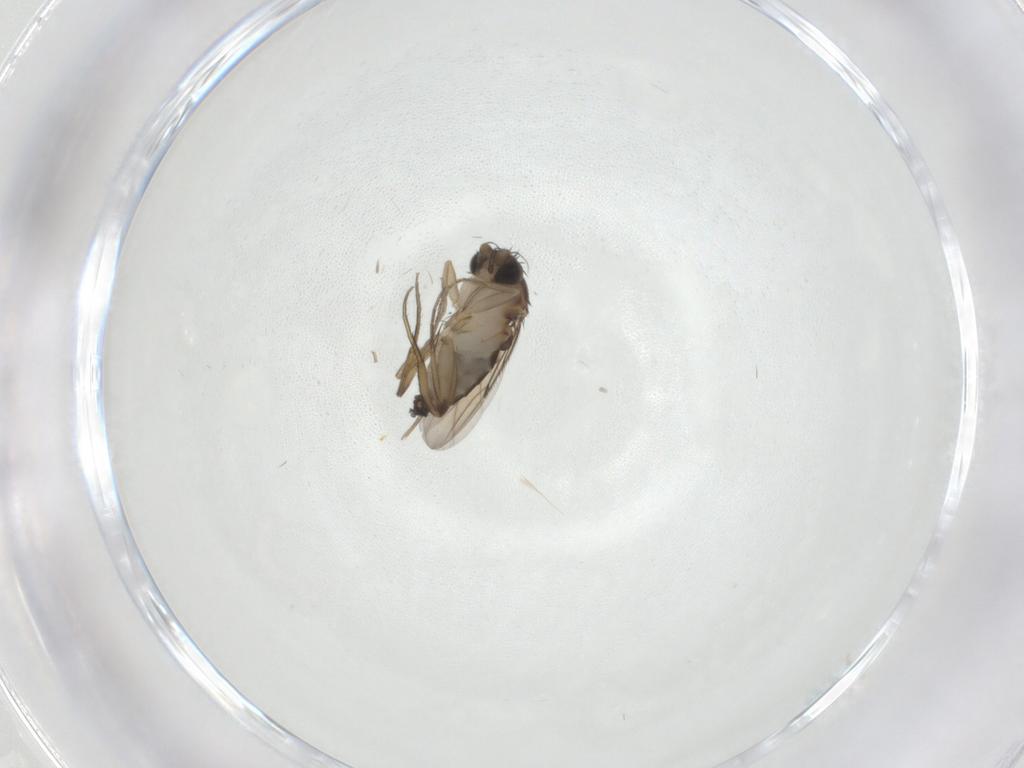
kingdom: Animalia
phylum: Arthropoda
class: Insecta
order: Diptera
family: Phoridae
